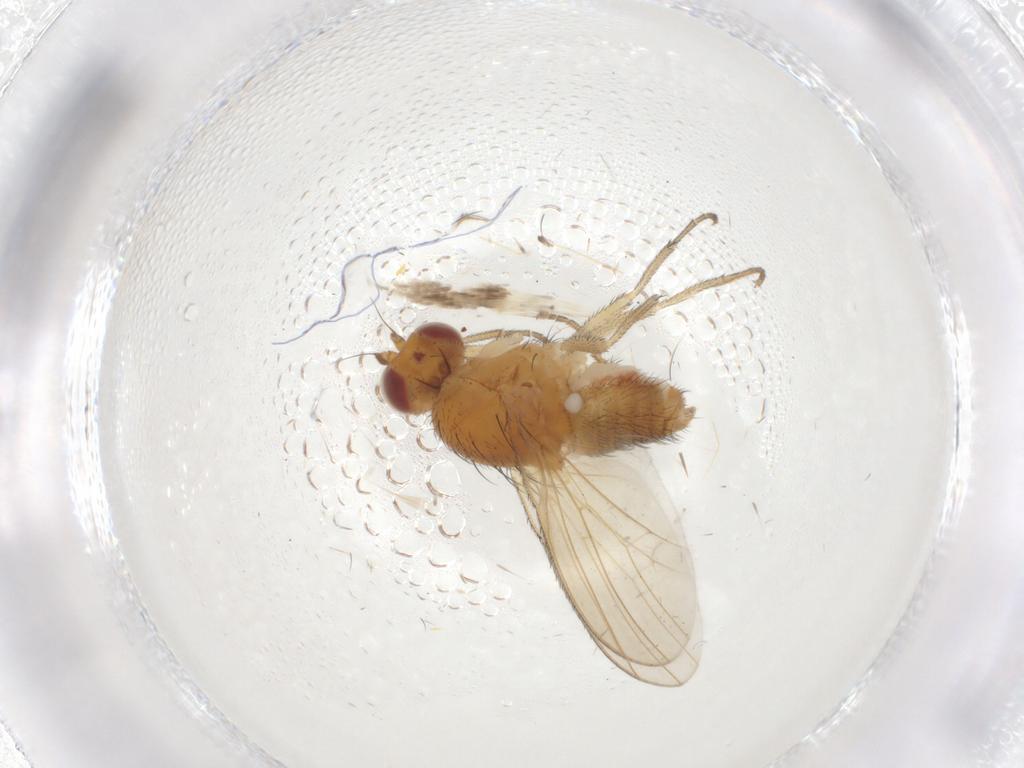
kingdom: Animalia
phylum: Arthropoda
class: Insecta
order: Diptera
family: Heleomyzidae
